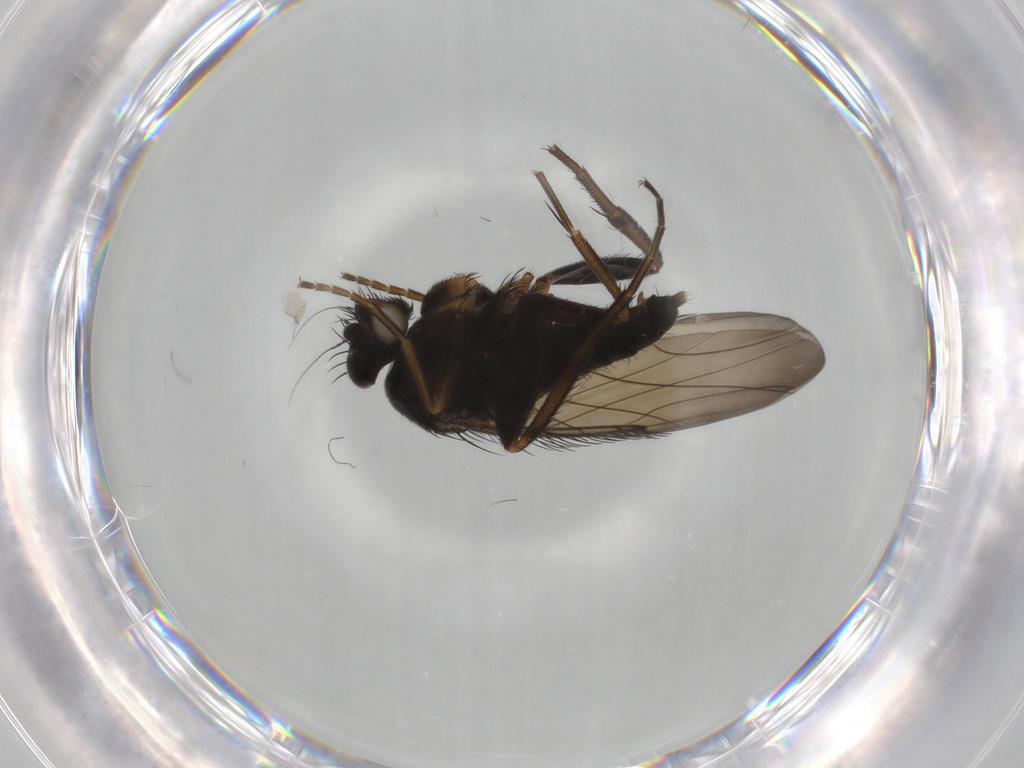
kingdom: Animalia
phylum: Arthropoda
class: Insecta
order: Diptera
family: Phoridae
